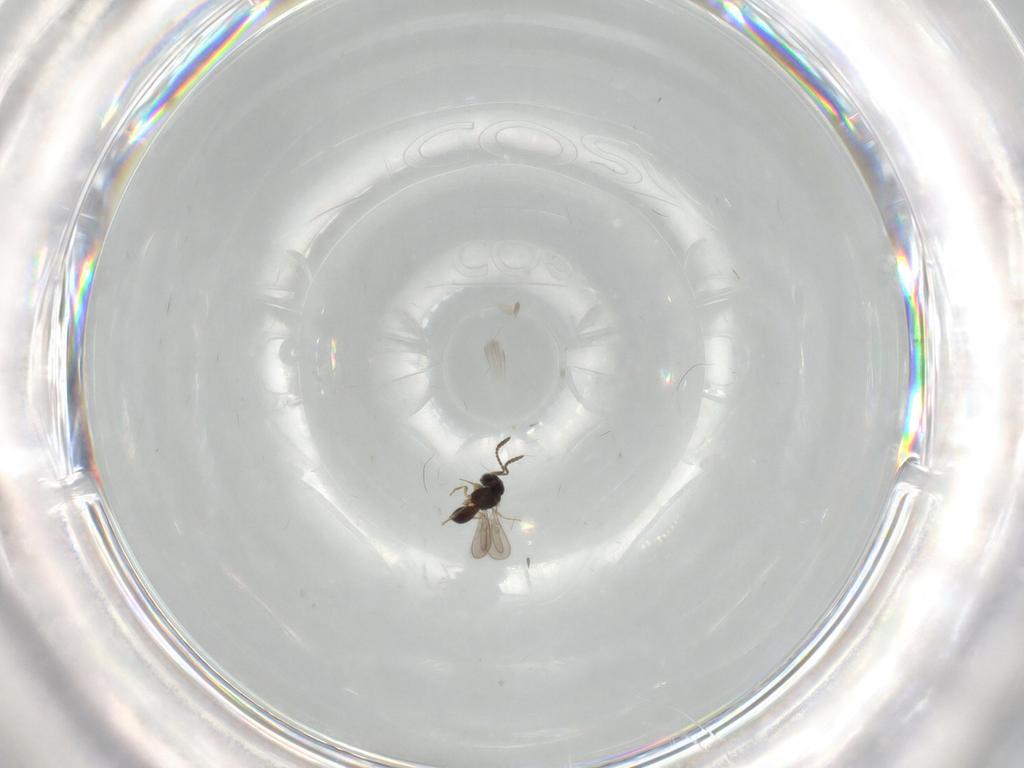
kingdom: Animalia
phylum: Arthropoda
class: Insecta
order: Hymenoptera
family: Scelionidae
